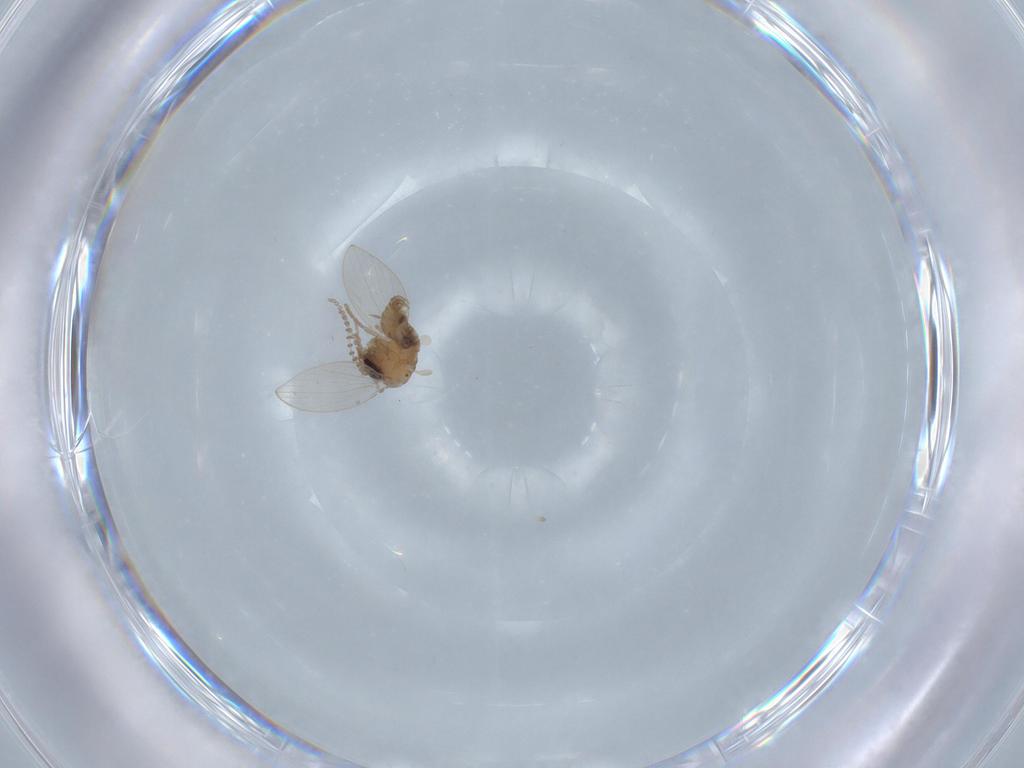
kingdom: Animalia
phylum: Arthropoda
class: Insecta
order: Diptera
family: Psychodidae
